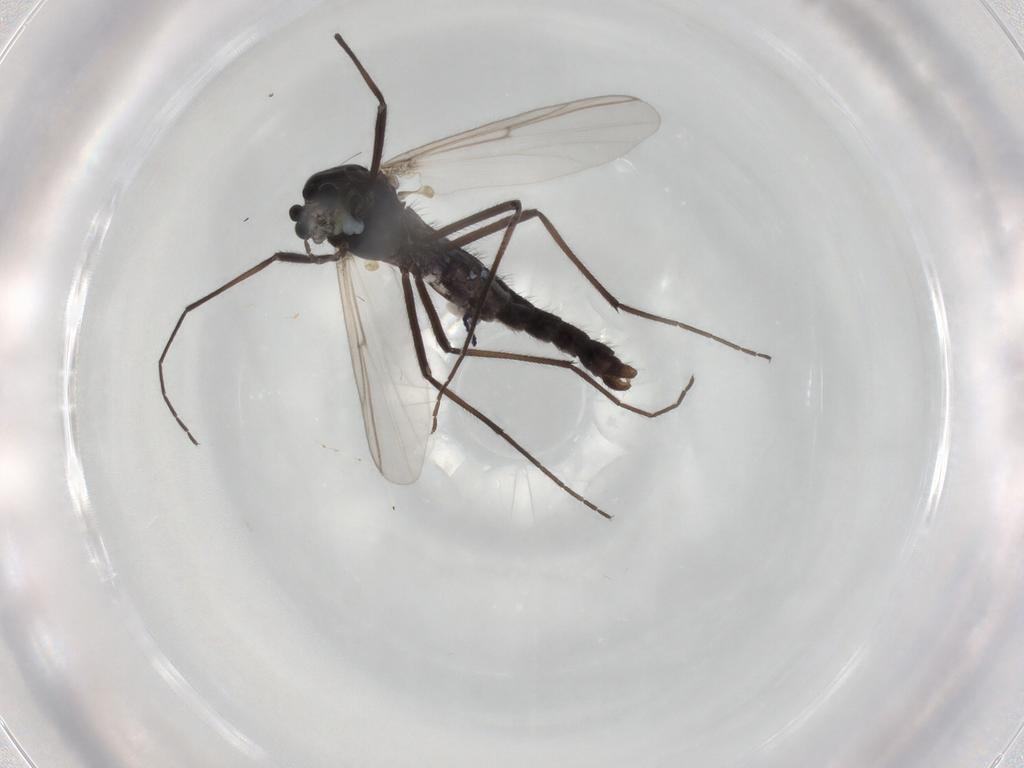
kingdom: Animalia
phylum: Arthropoda
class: Insecta
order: Diptera
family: Chironomidae
